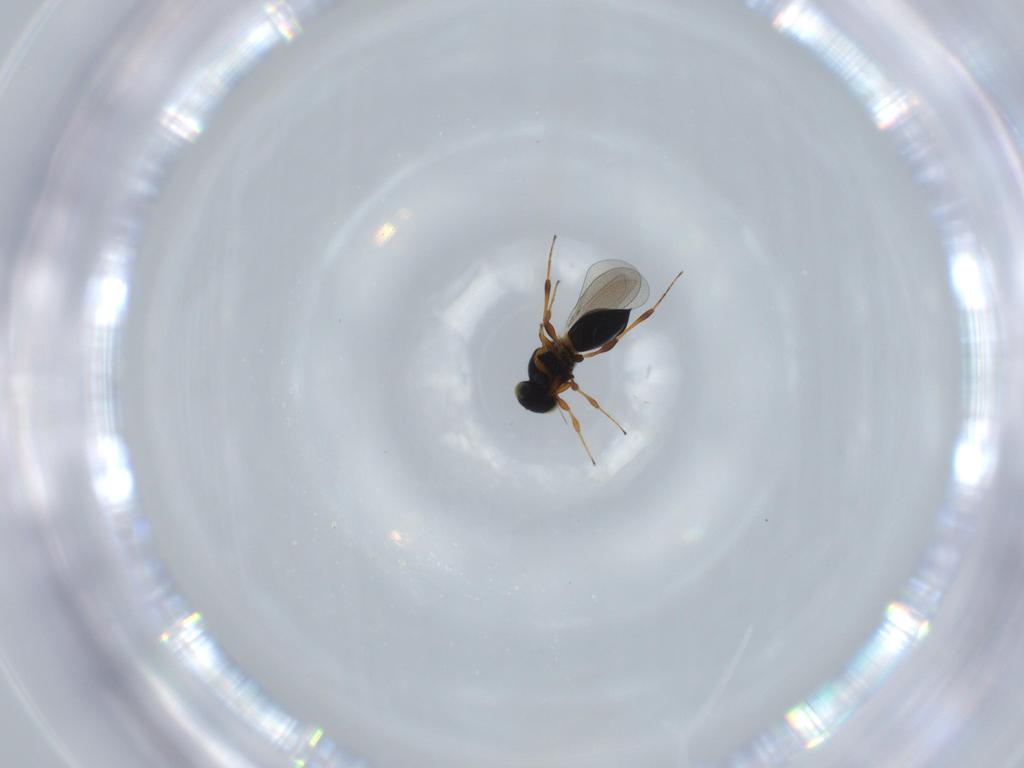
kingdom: Animalia
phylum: Arthropoda
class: Insecta
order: Hymenoptera
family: Platygastridae
